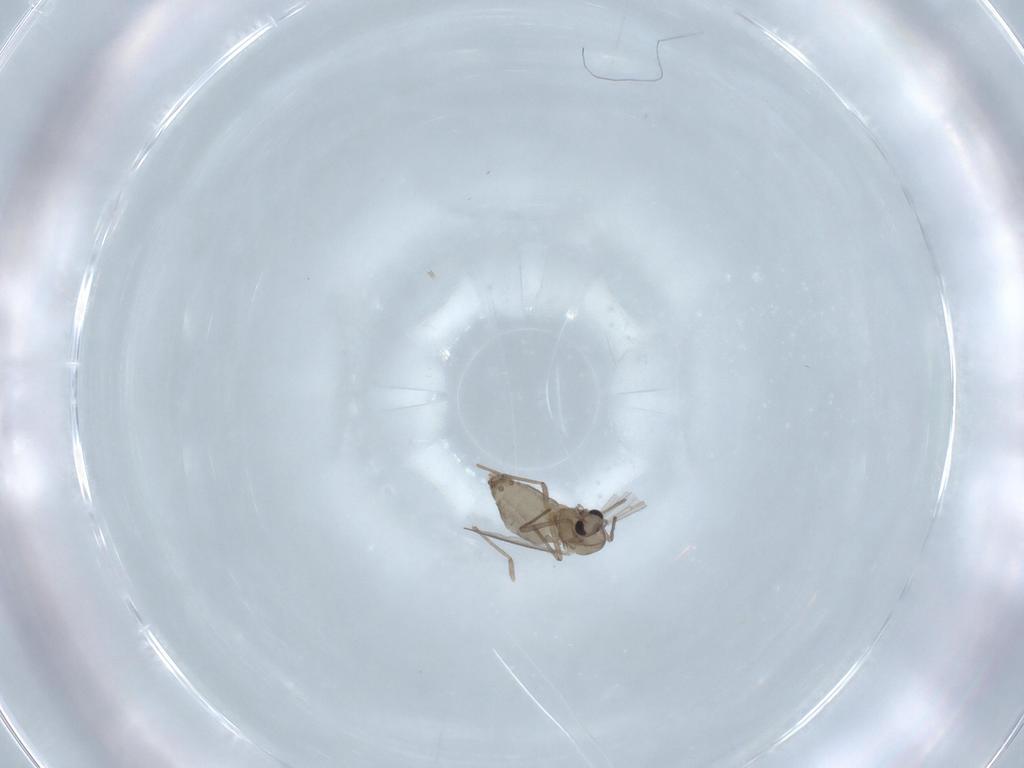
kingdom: Animalia
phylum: Arthropoda
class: Insecta
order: Diptera
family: Chironomidae
